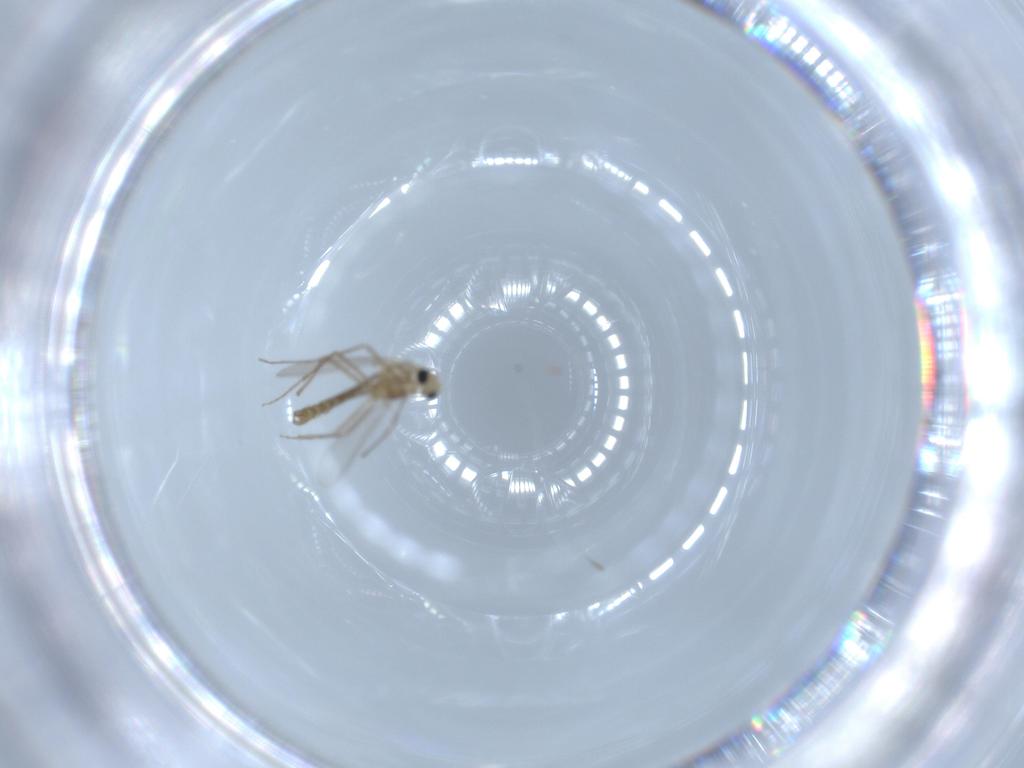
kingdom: Animalia
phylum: Arthropoda
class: Insecta
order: Diptera
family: Chironomidae
